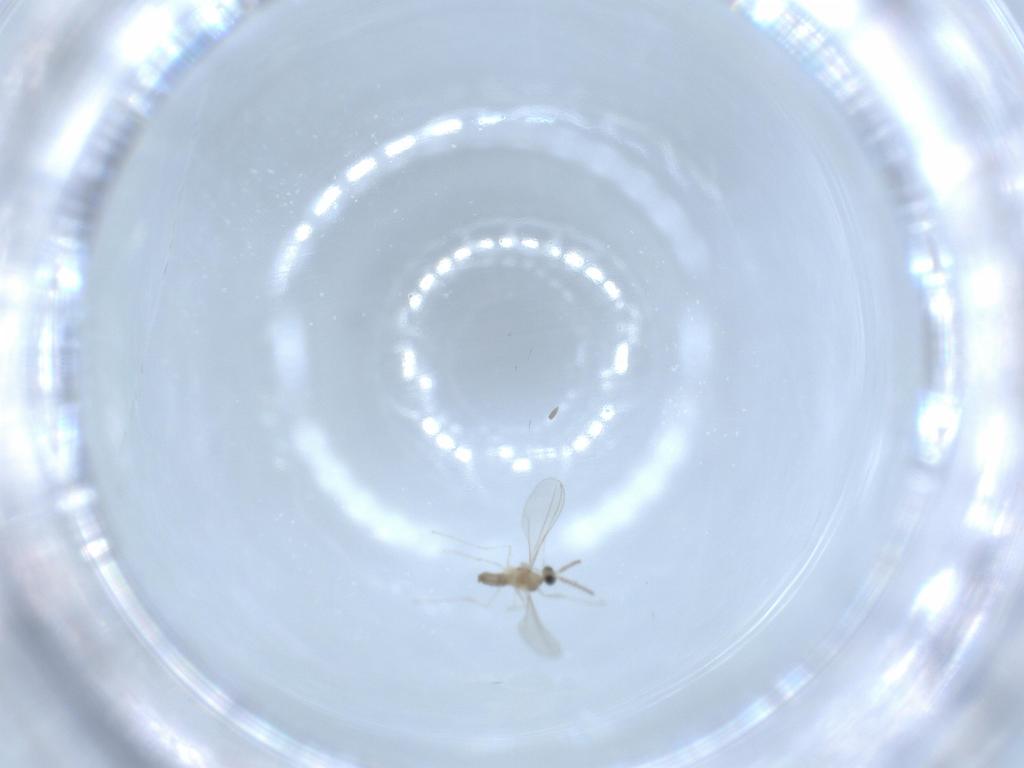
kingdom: Animalia
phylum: Arthropoda
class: Insecta
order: Diptera
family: Cecidomyiidae
